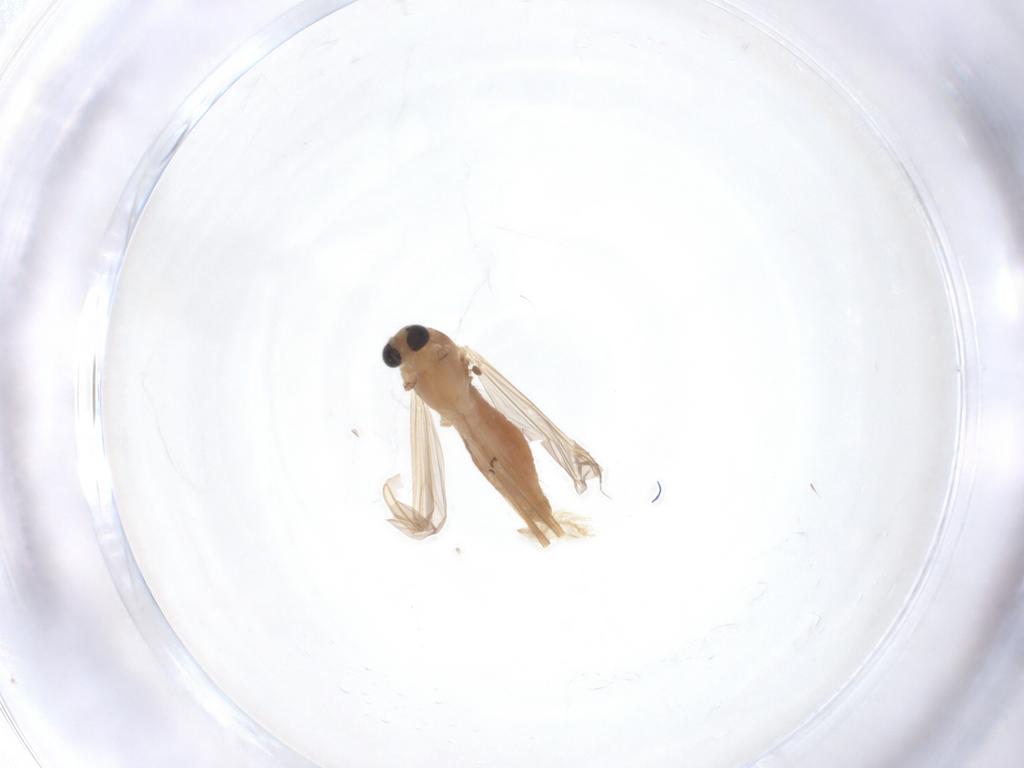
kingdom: Animalia
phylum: Arthropoda
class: Insecta
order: Diptera
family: Chironomidae
